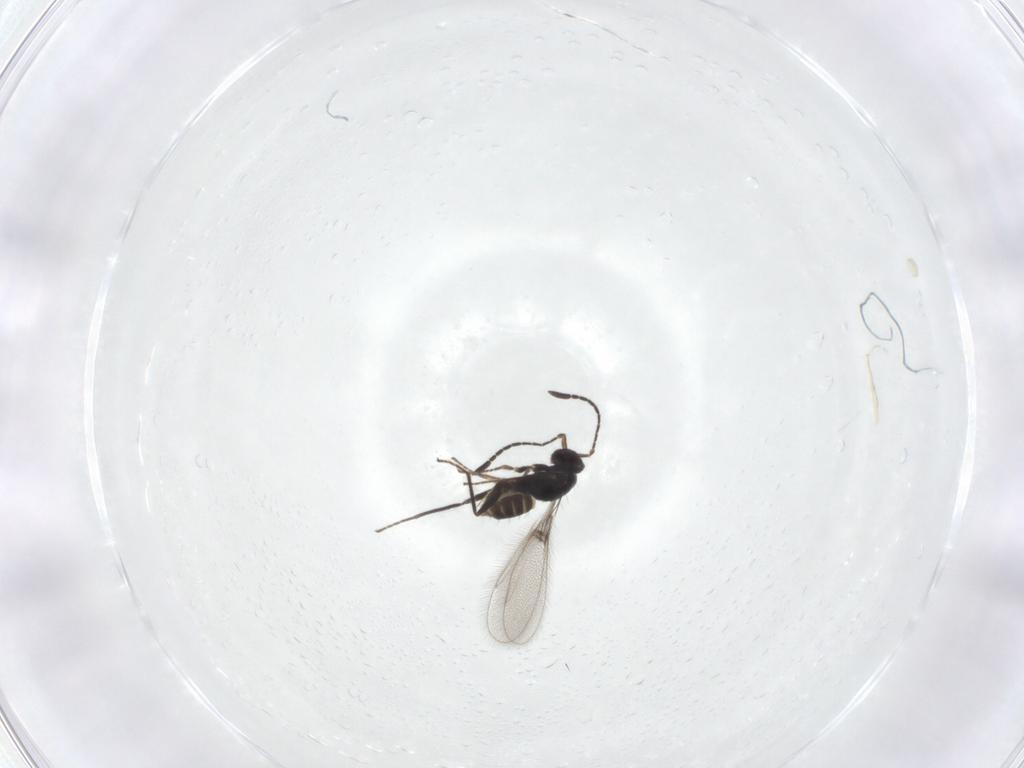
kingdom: Animalia
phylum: Arthropoda
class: Insecta
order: Hymenoptera
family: Mymaridae
